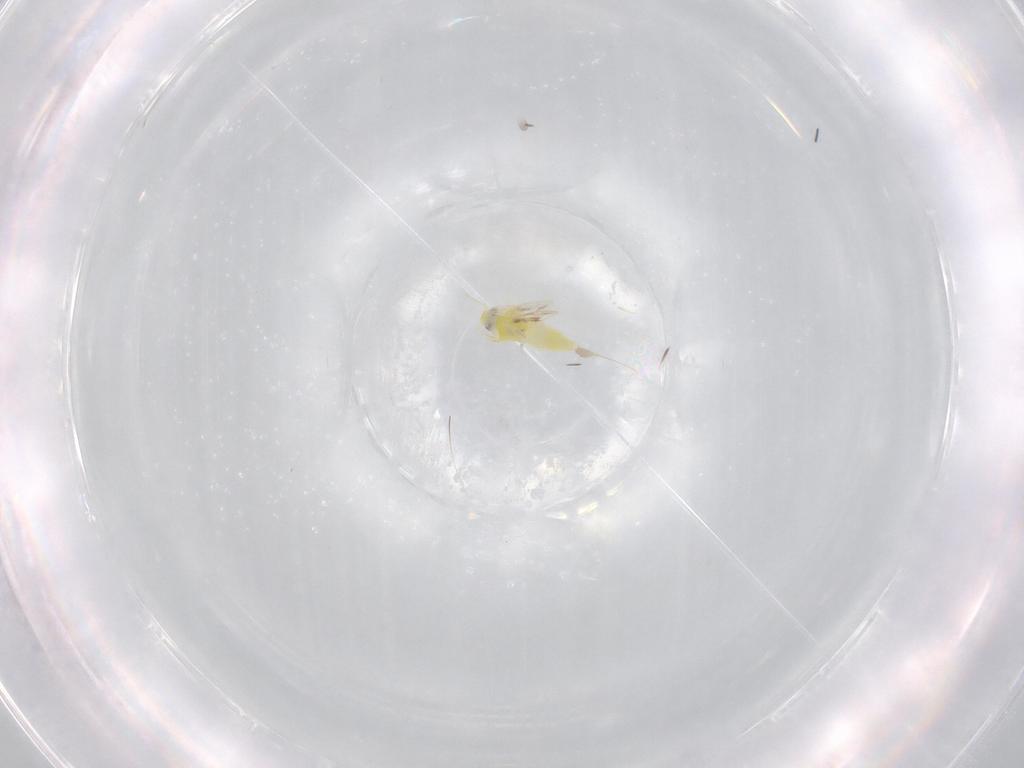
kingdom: Animalia
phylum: Arthropoda
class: Insecta
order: Hemiptera
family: Aleyrodidae
